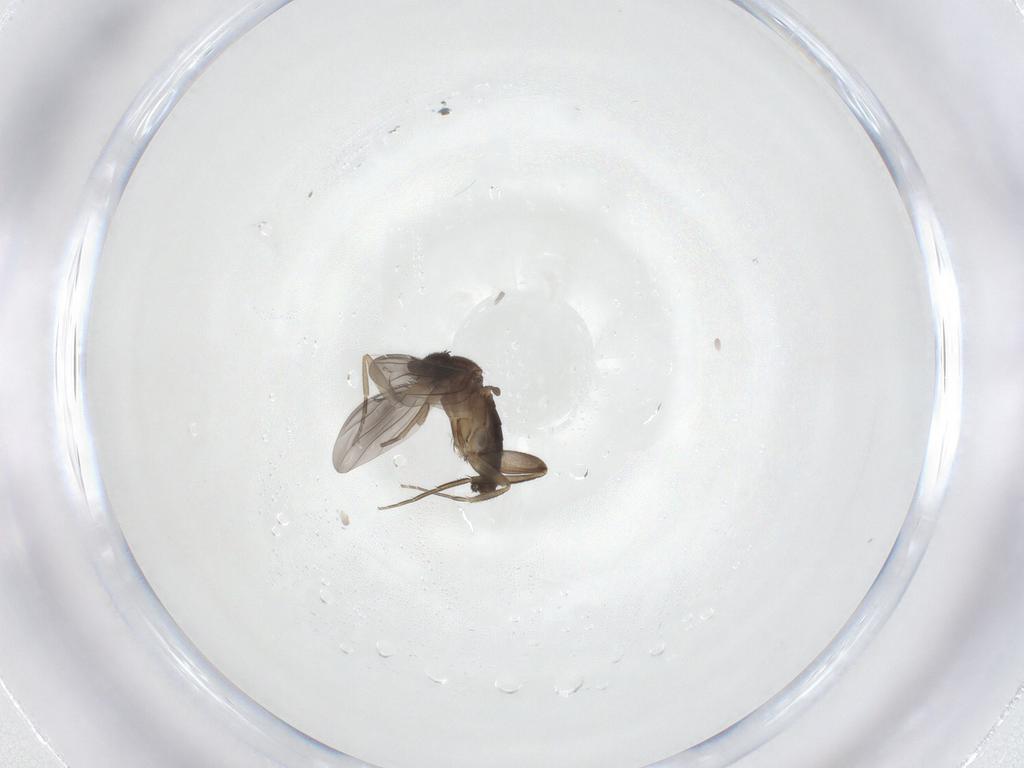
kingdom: Animalia
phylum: Arthropoda
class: Insecta
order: Diptera
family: Phoridae
